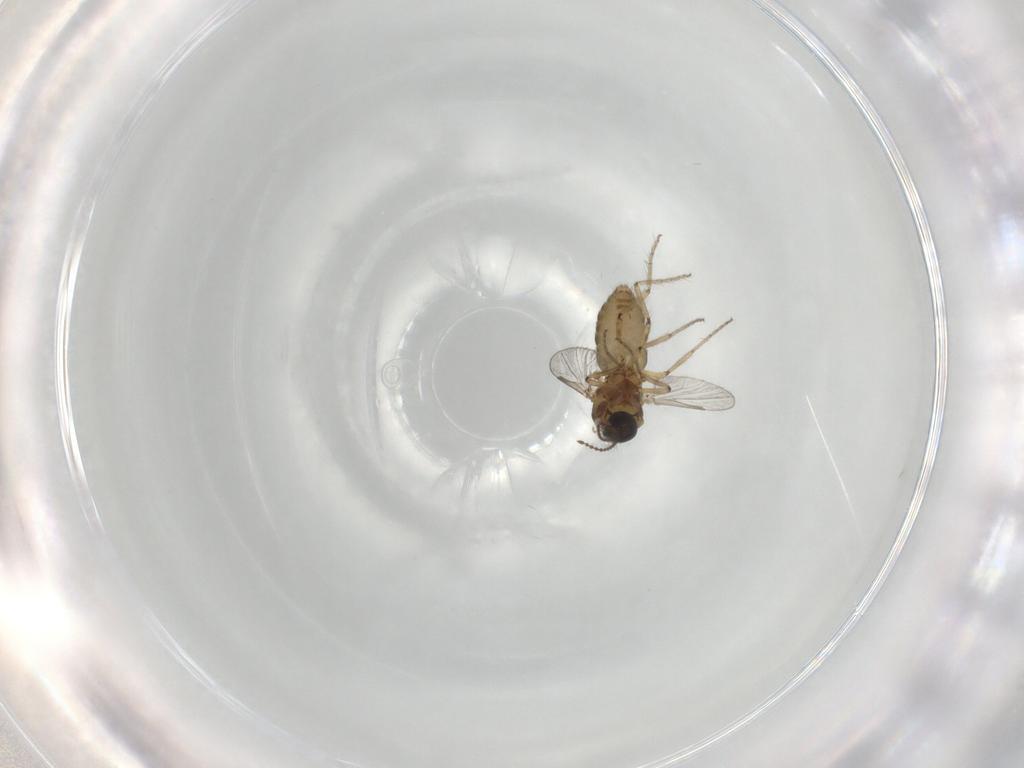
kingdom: Animalia
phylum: Arthropoda
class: Insecta
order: Diptera
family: Ceratopogonidae
